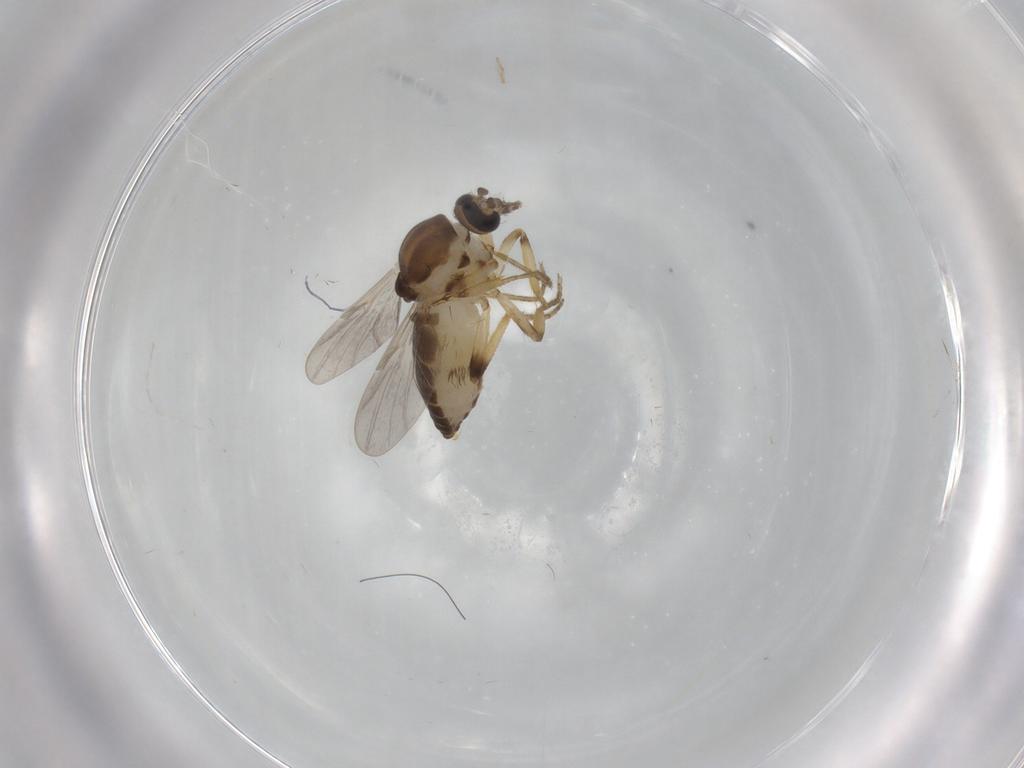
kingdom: Animalia
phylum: Arthropoda
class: Insecta
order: Diptera
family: Ceratopogonidae
